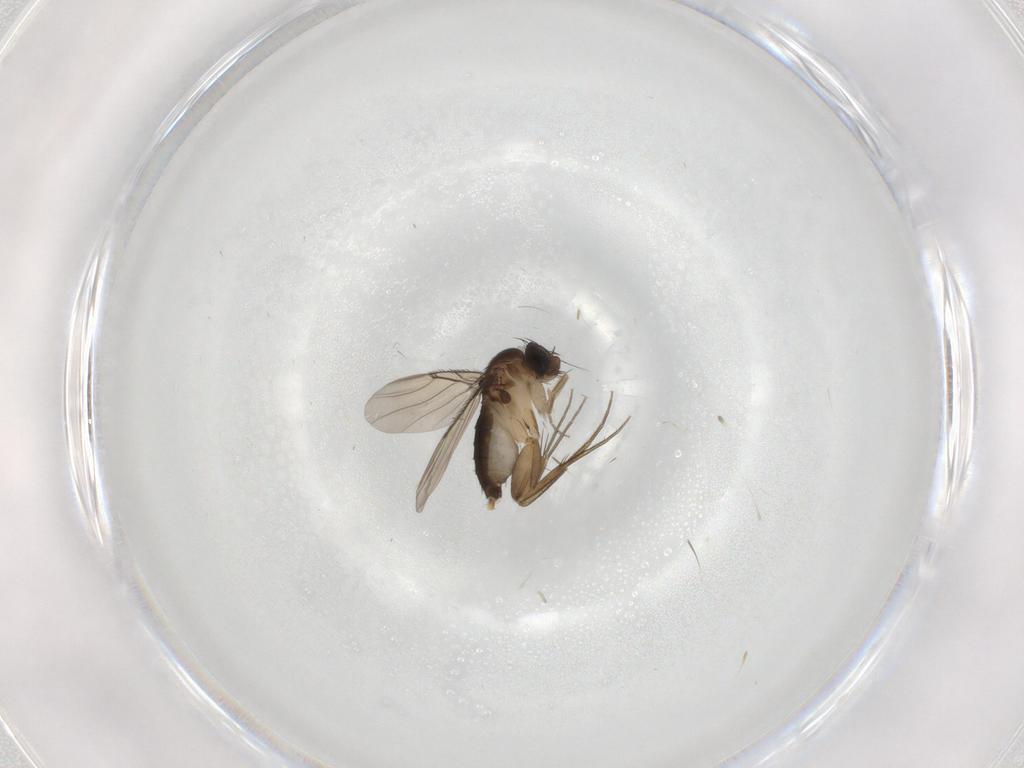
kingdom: Animalia
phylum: Arthropoda
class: Insecta
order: Diptera
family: Phoridae
